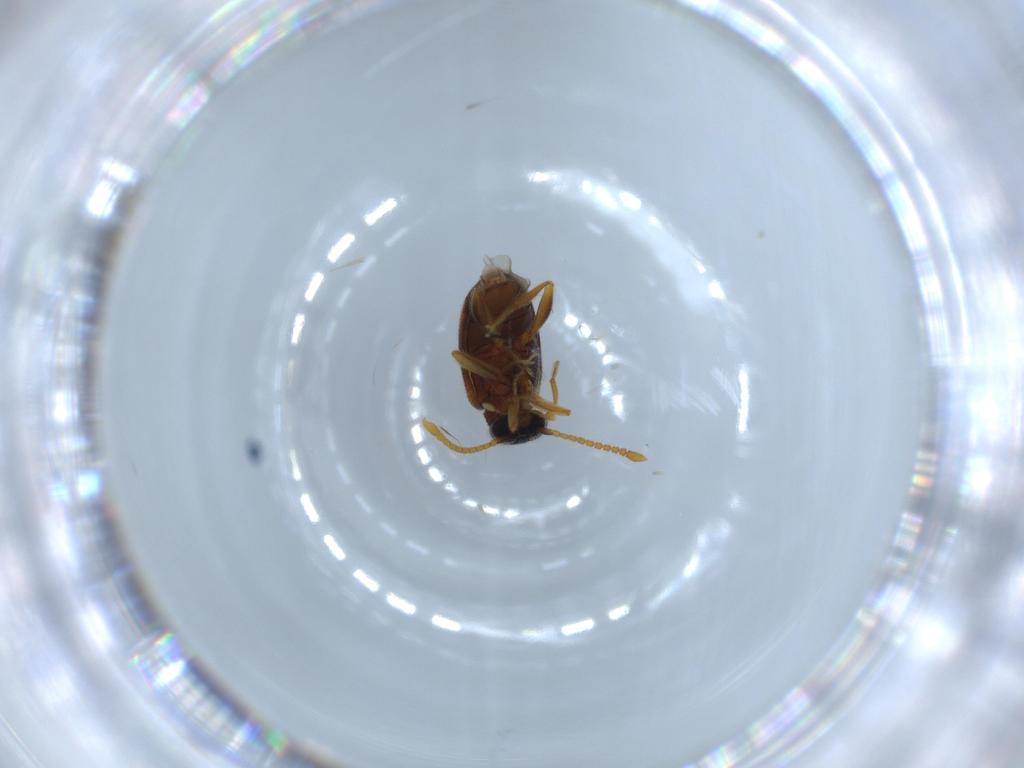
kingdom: Animalia
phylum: Arthropoda
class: Insecta
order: Coleoptera
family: Aderidae
